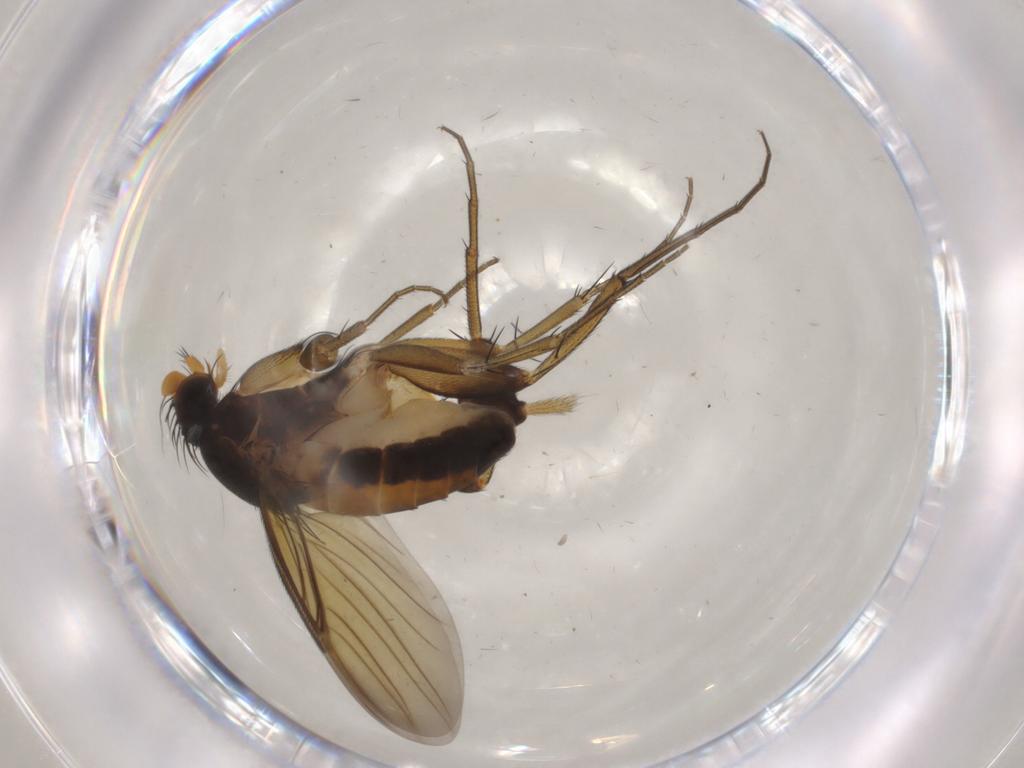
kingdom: Animalia
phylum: Arthropoda
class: Insecta
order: Diptera
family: Phoridae
